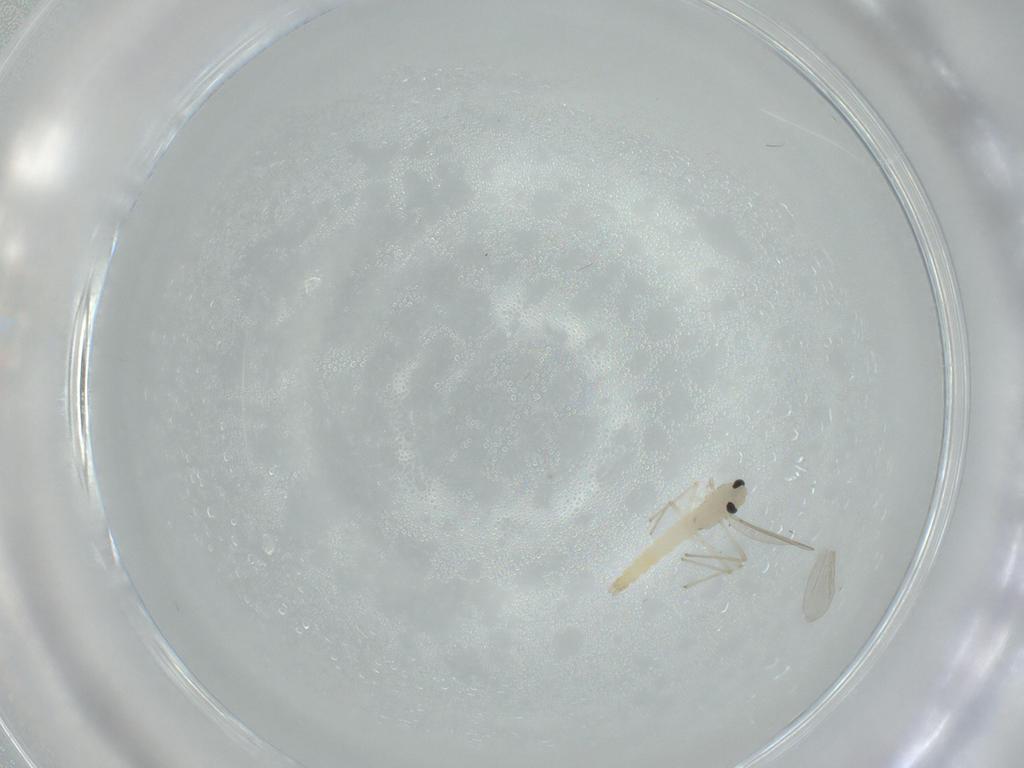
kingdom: Animalia
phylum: Arthropoda
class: Insecta
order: Diptera
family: Chironomidae
